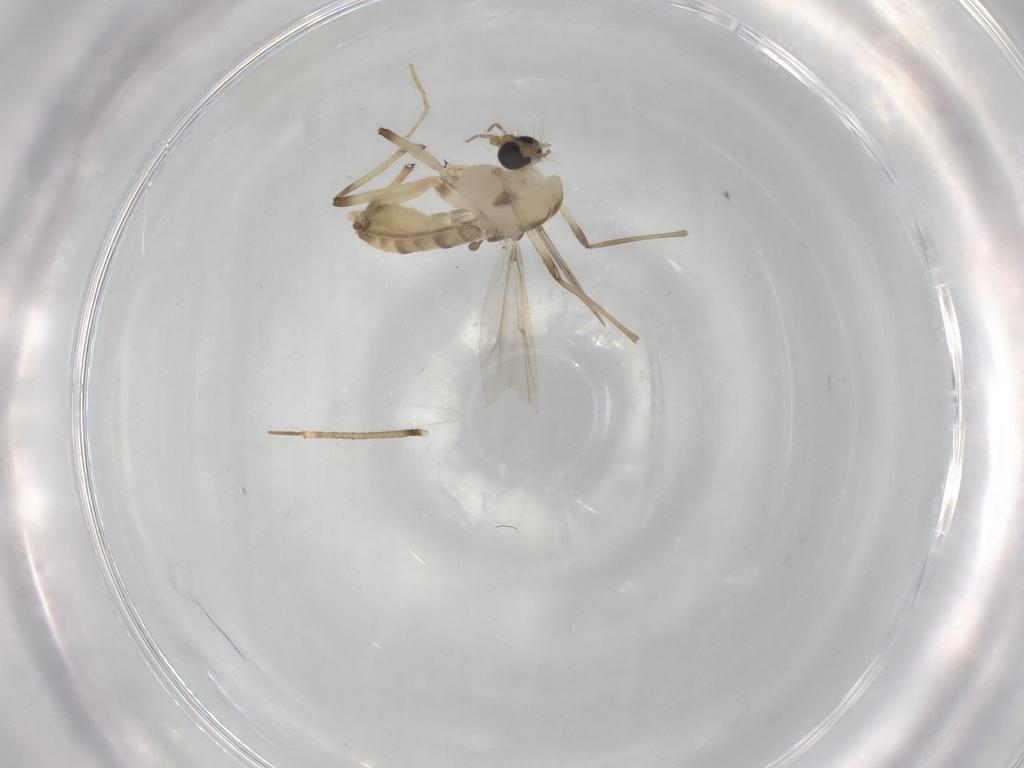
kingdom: Animalia
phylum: Arthropoda
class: Insecta
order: Diptera
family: Chironomidae
